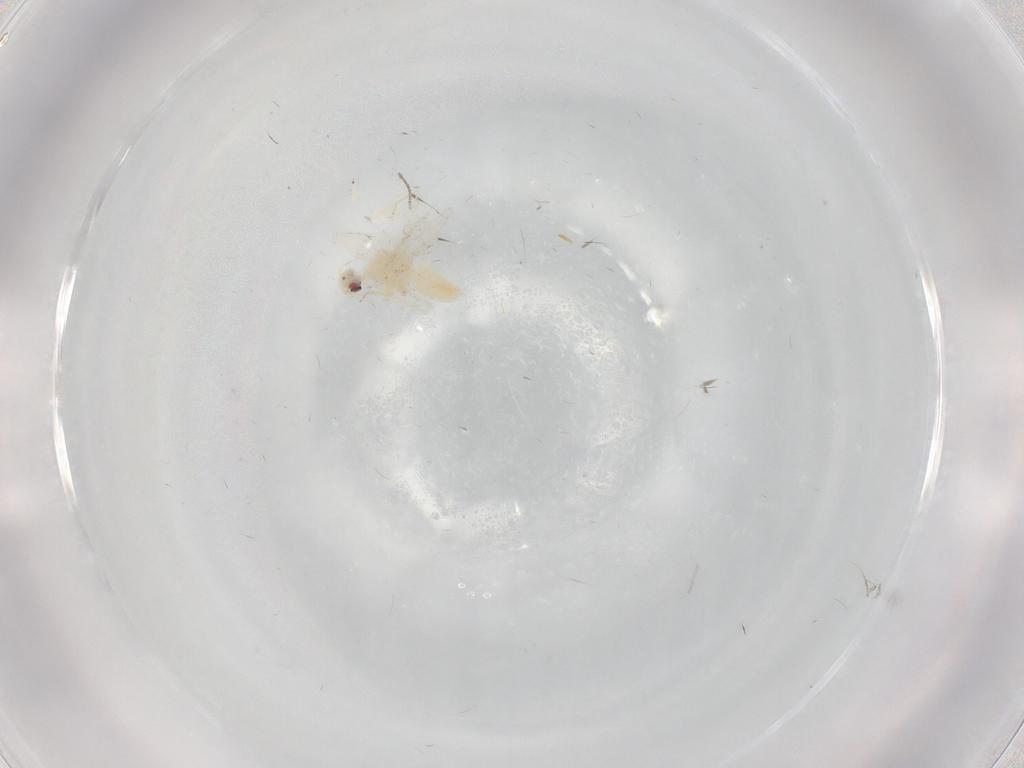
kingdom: Animalia
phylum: Arthropoda
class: Insecta
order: Hemiptera
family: Aleyrodidae
